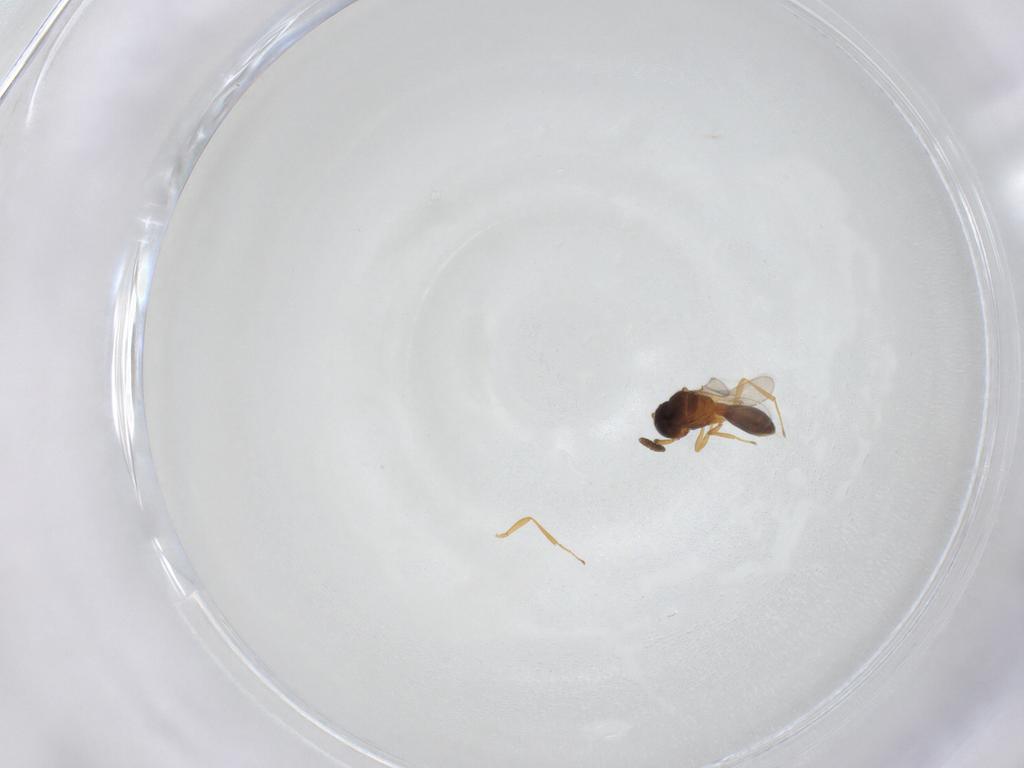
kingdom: Animalia
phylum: Arthropoda
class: Insecta
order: Hymenoptera
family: Scelionidae
